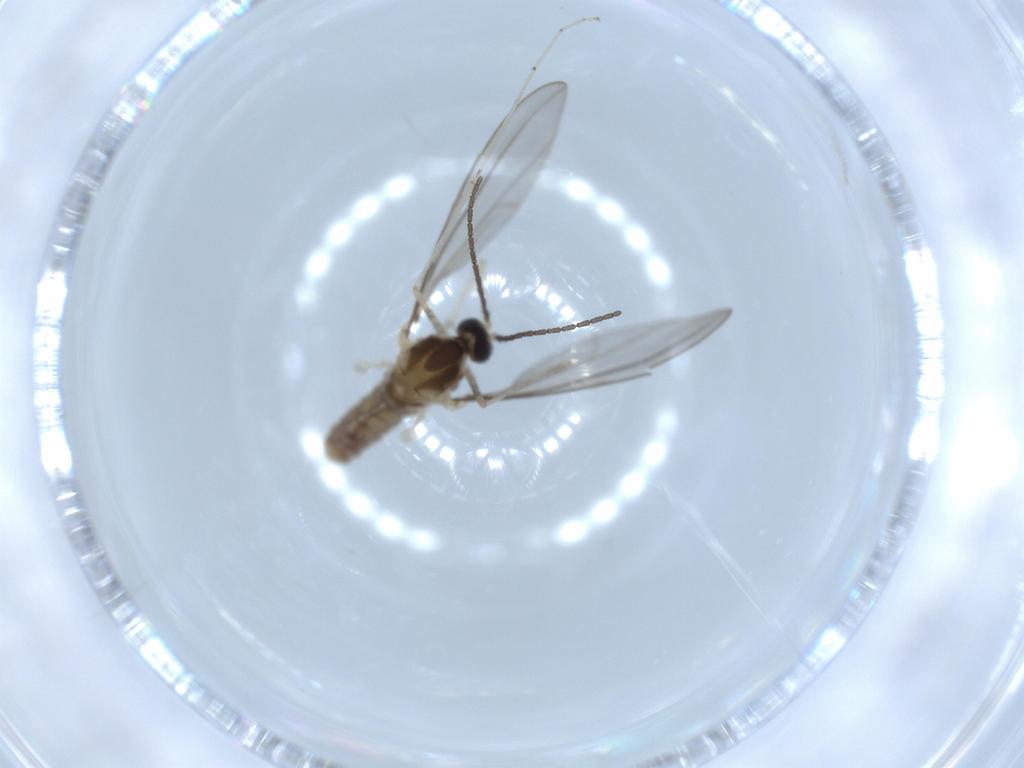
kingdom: Animalia
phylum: Arthropoda
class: Insecta
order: Diptera
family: Cecidomyiidae
